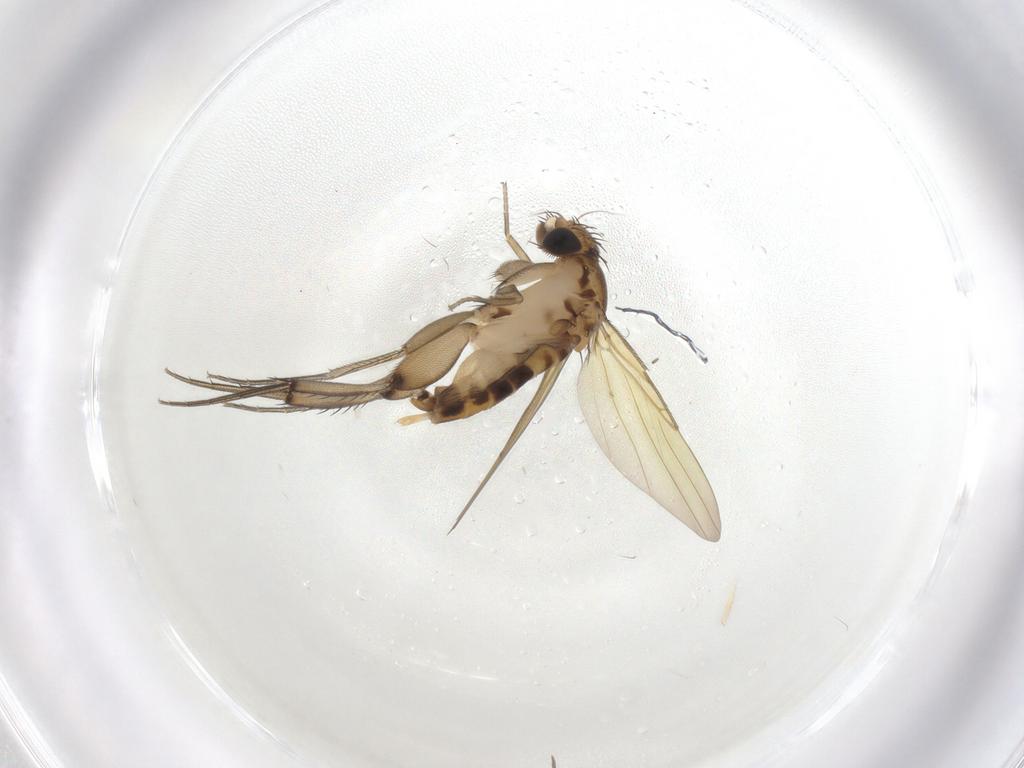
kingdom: Animalia
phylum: Arthropoda
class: Insecta
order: Diptera
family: Phoridae
